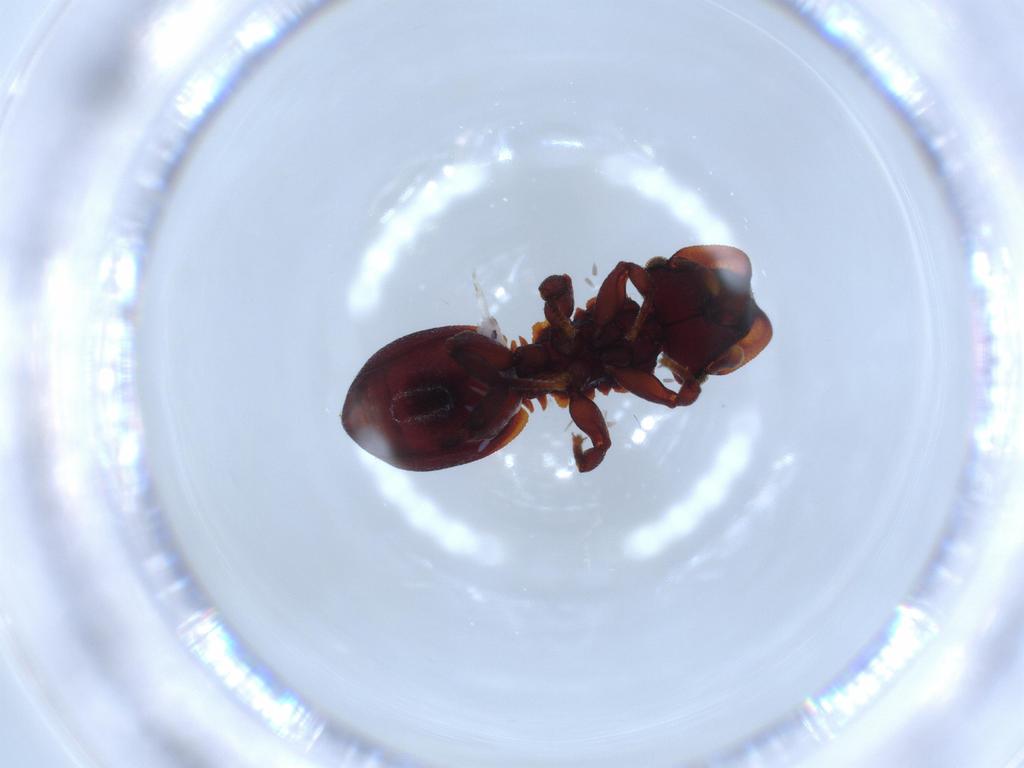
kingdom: Animalia
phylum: Arthropoda
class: Insecta
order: Hymenoptera
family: Formicidae
